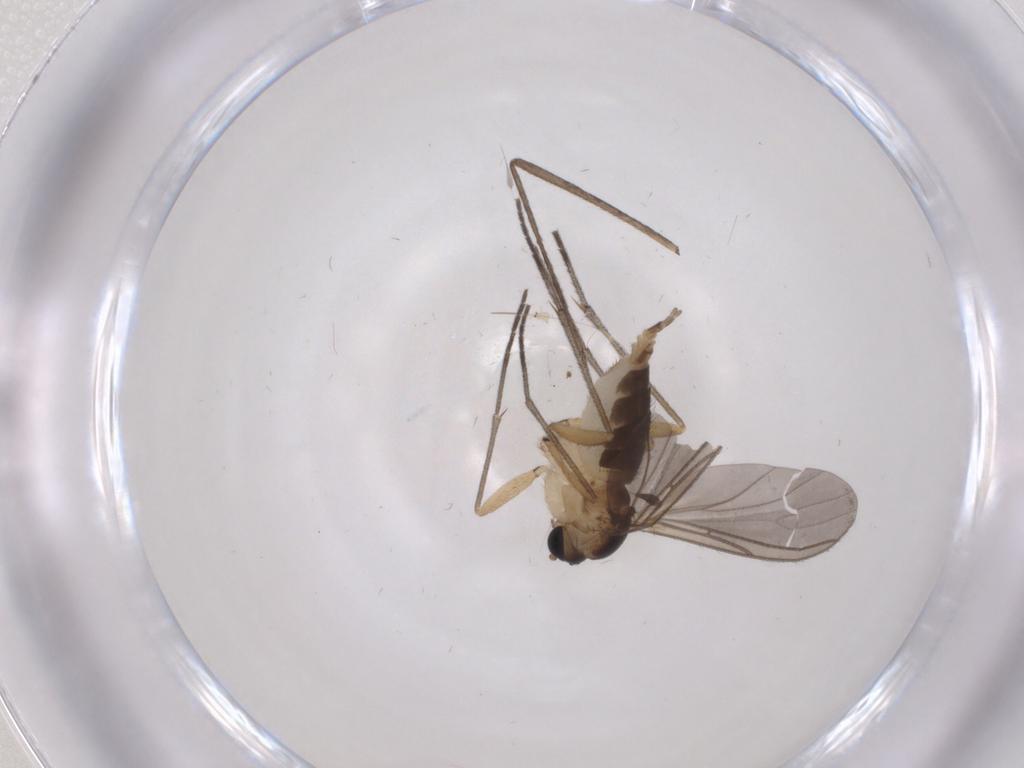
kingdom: Animalia
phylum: Arthropoda
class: Insecta
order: Diptera
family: Sciaridae
